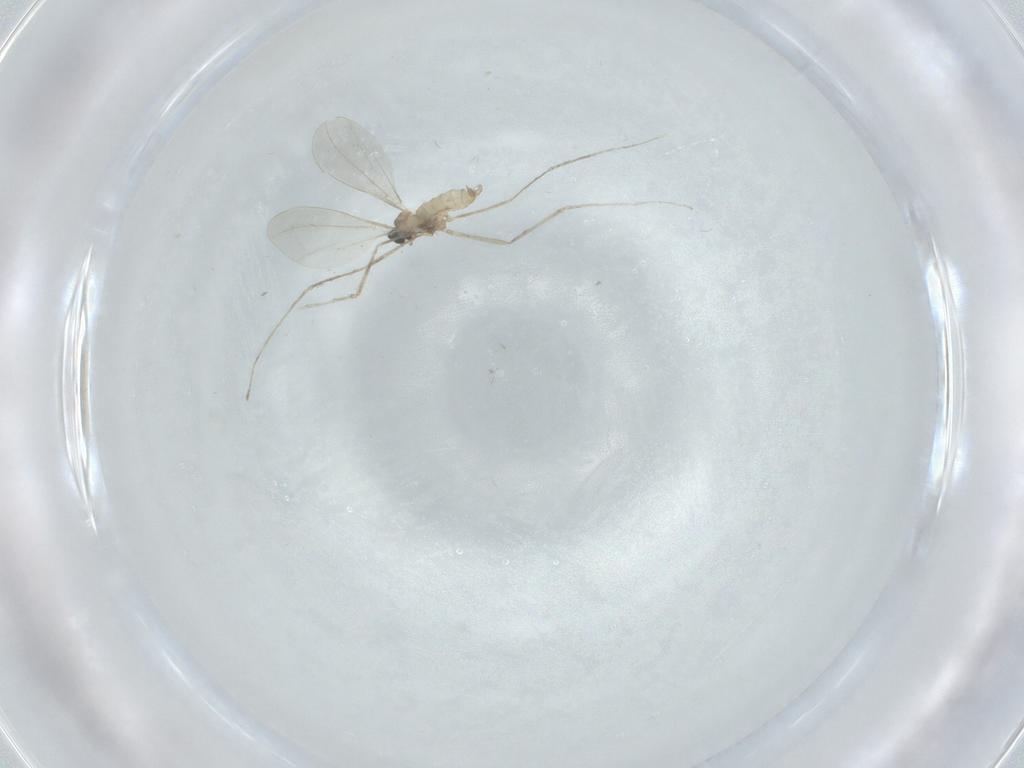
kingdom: Animalia
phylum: Arthropoda
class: Insecta
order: Diptera
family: Cecidomyiidae
